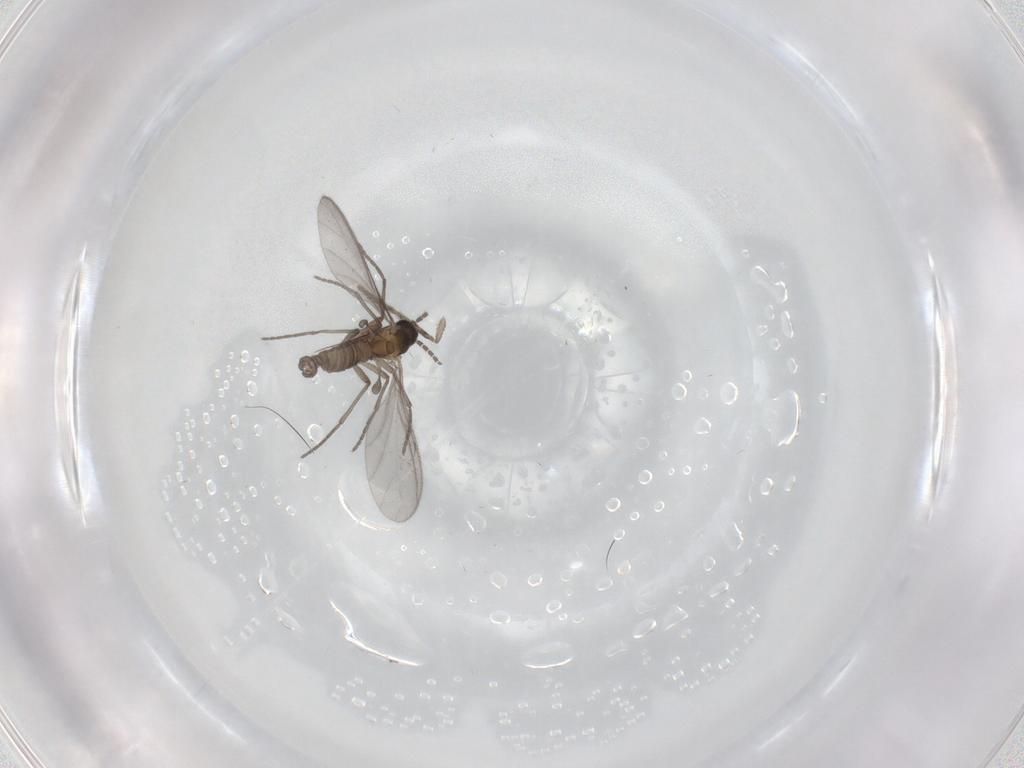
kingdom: Animalia
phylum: Arthropoda
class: Insecta
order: Diptera
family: Sciaridae
